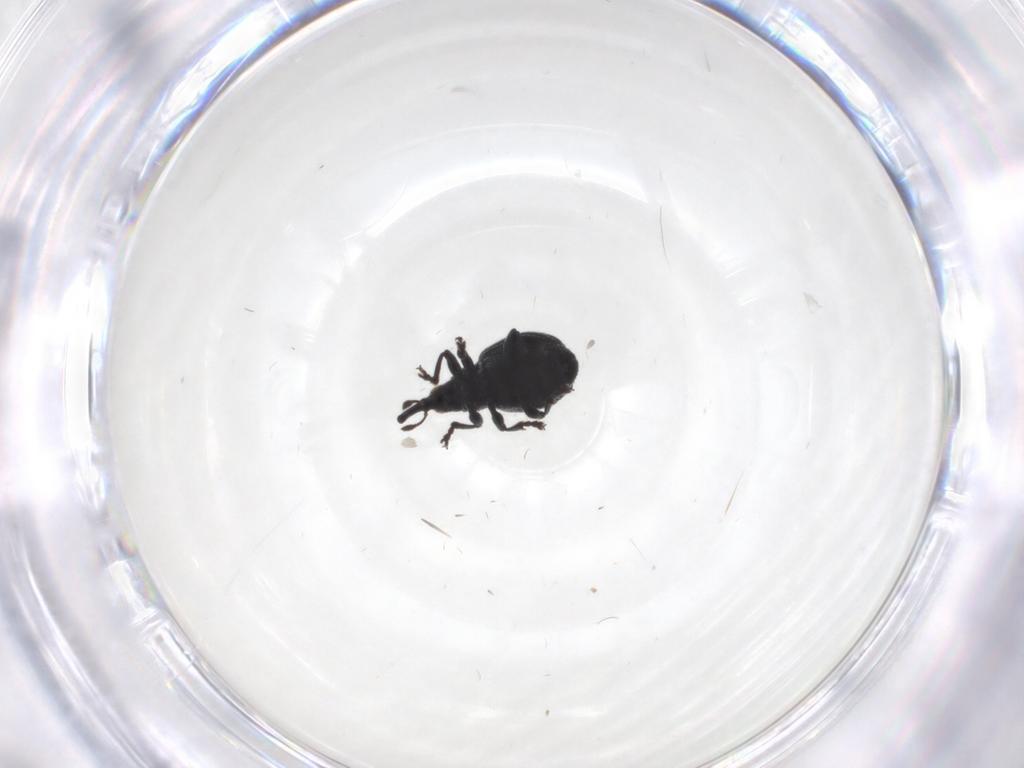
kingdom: Animalia
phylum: Arthropoda
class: Insecta
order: Coleoptera
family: Brentidae
